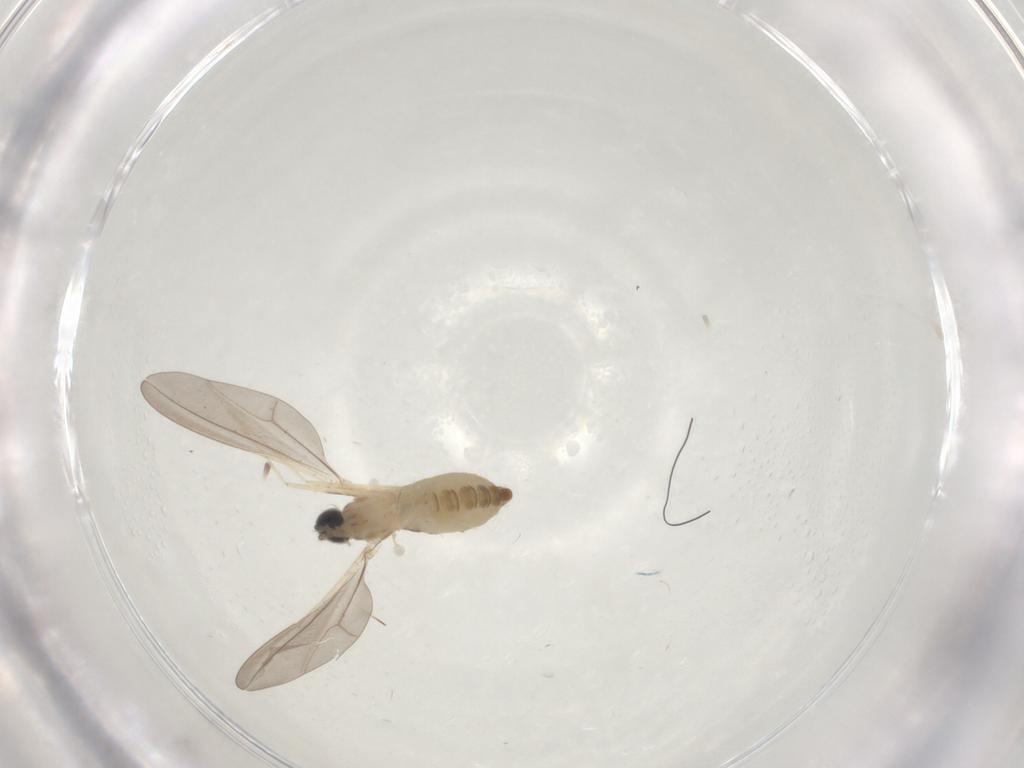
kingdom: Animalia
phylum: Arthropoda
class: Insecta
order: Diptera
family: Cecidomyiidae
